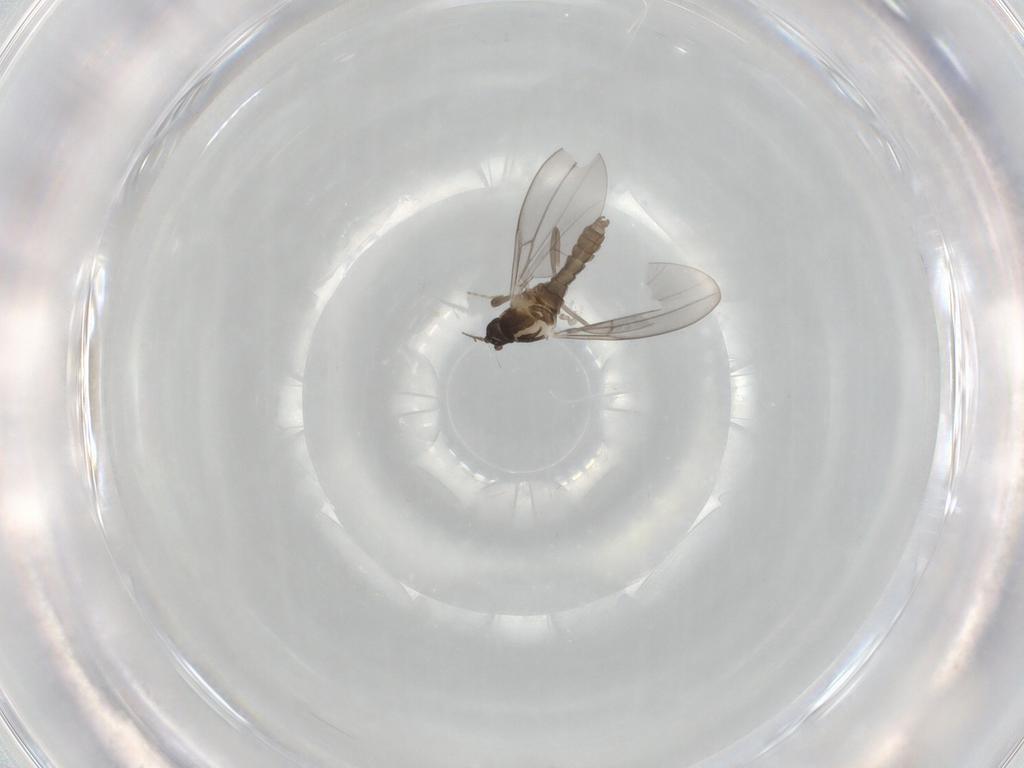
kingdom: Animalia
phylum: Arthropoda
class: Insecta
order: Diptera
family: Cecidomyiidae
